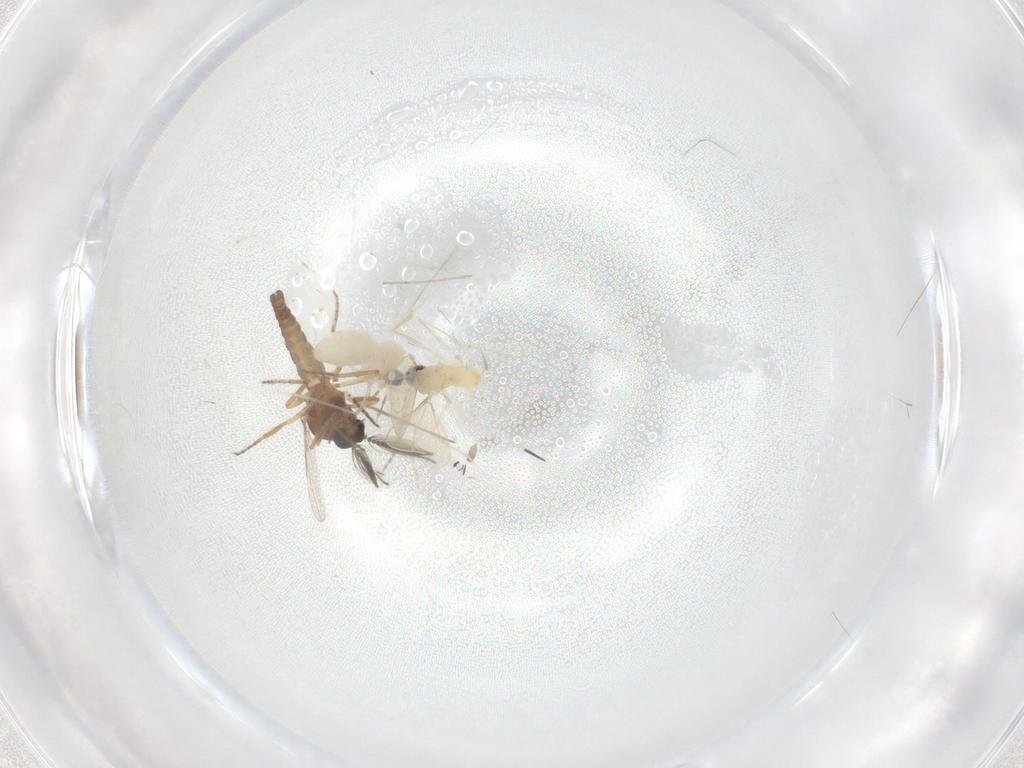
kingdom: Animalia
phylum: Arthropoda
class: Insecta
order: Diptera
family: Ceratopogonidae
